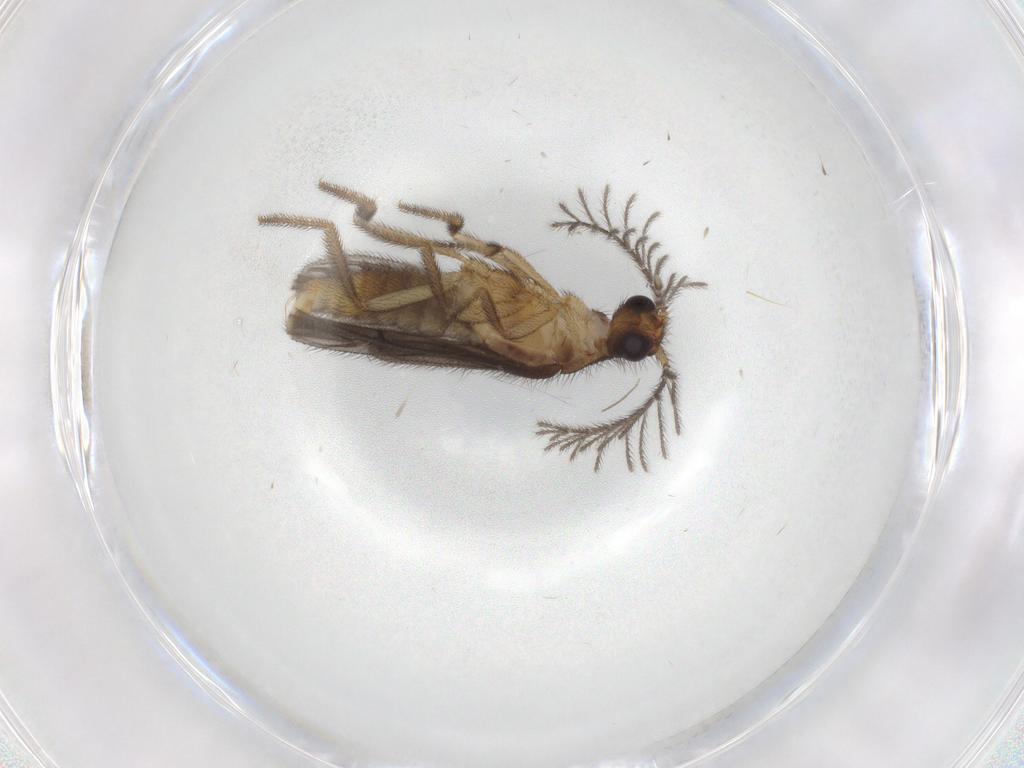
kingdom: Animalia
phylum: Arthropoda
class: Insecta
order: Coleoptera
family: Phengodidae
